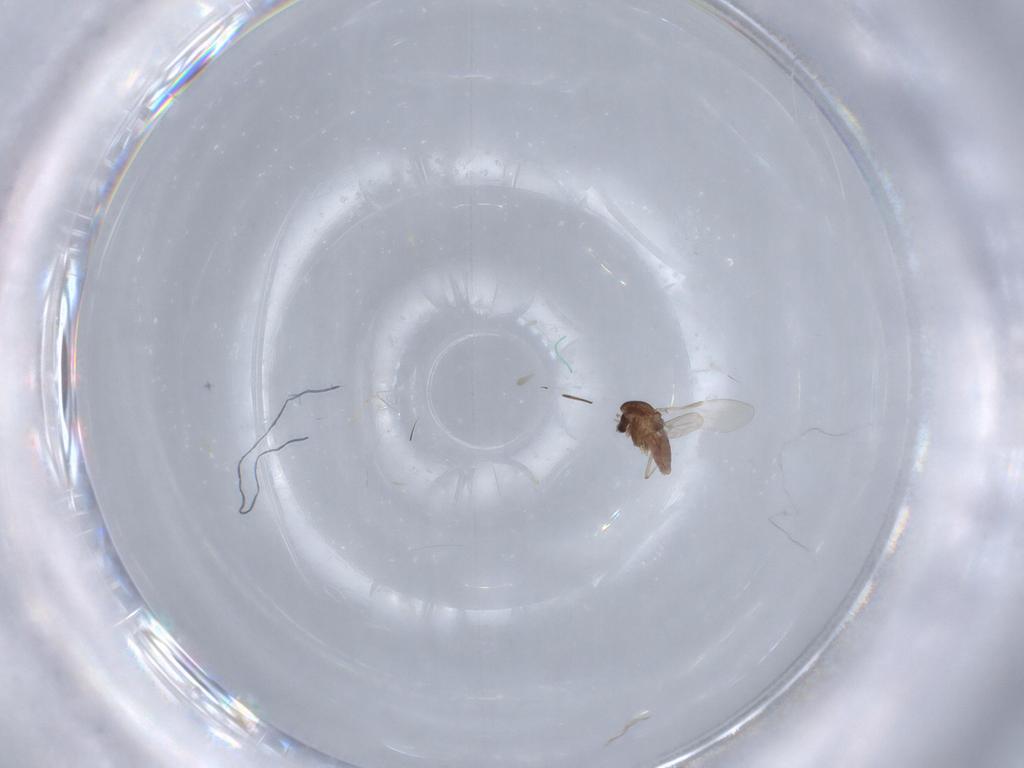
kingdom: Animalia
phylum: Arthropoda
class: Insecta
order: Diptera
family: Chironomidae
